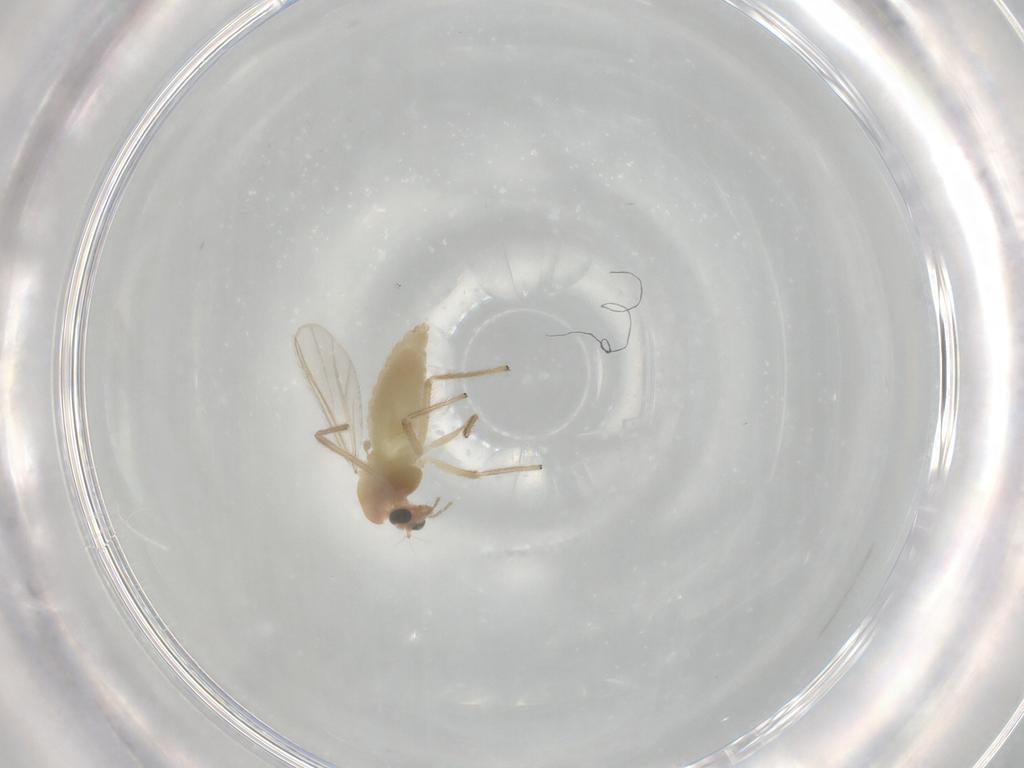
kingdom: Animalia
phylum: Arthropoda
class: Insecta
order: Diptera
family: Chironomidae
